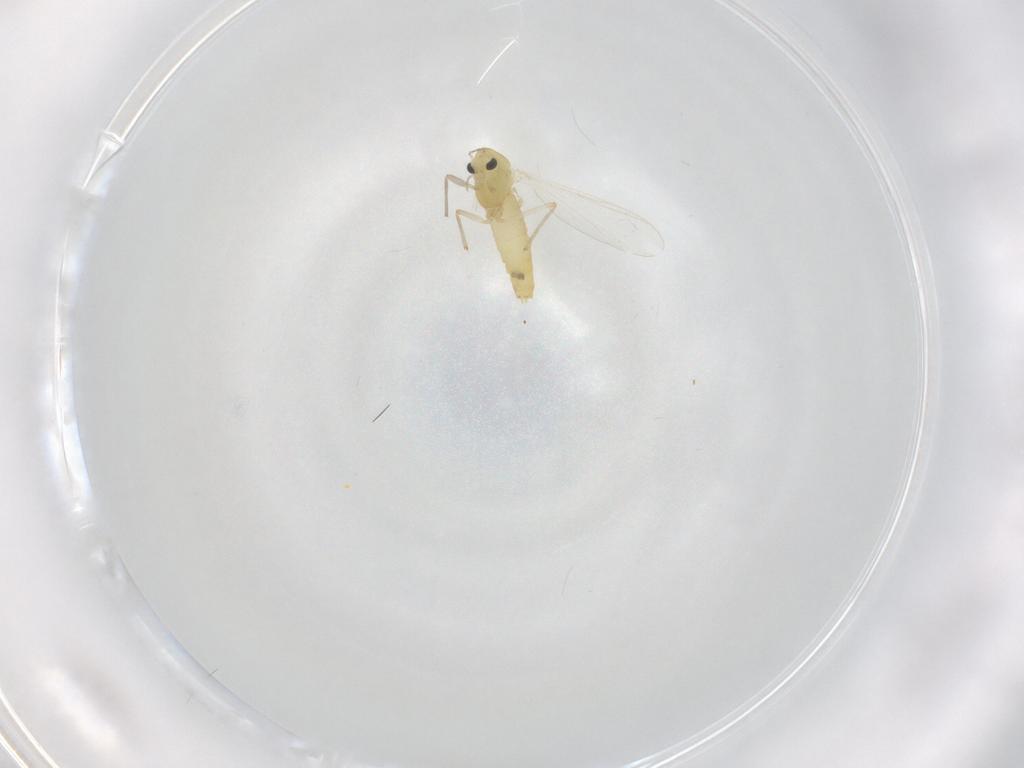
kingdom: Animalia
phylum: Arthropoda
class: Insecta
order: Diptera
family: Chironomidae
